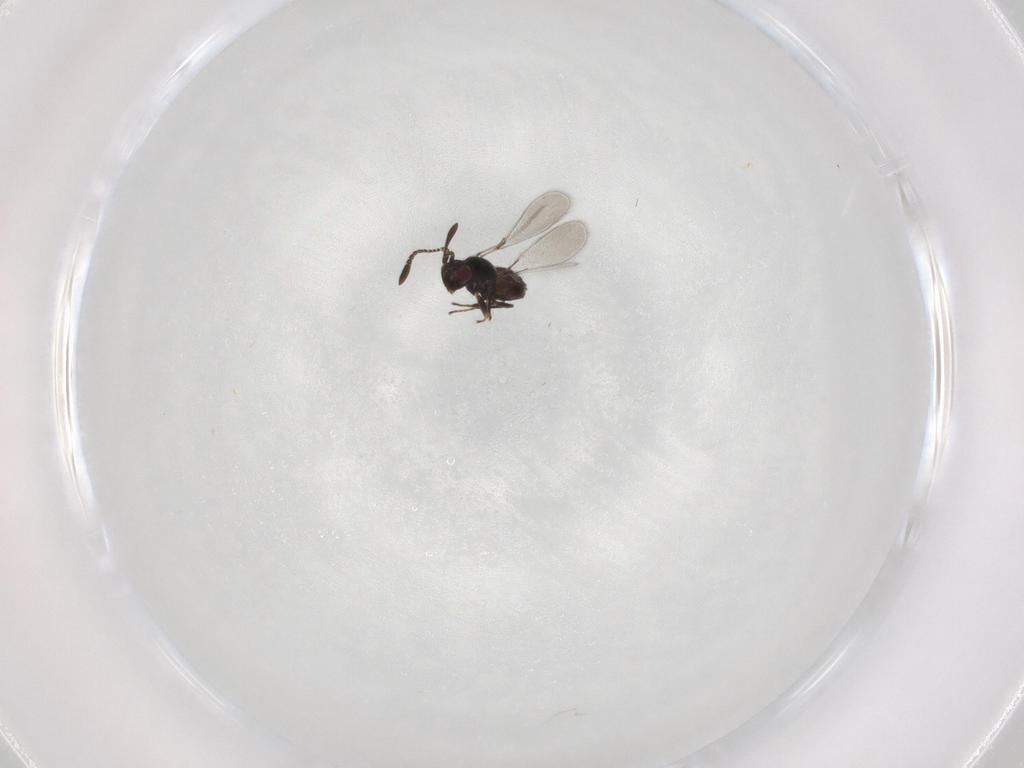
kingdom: Animalia
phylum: Arthropoda
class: Insecta
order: Hymenoptera
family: Mymaridae
